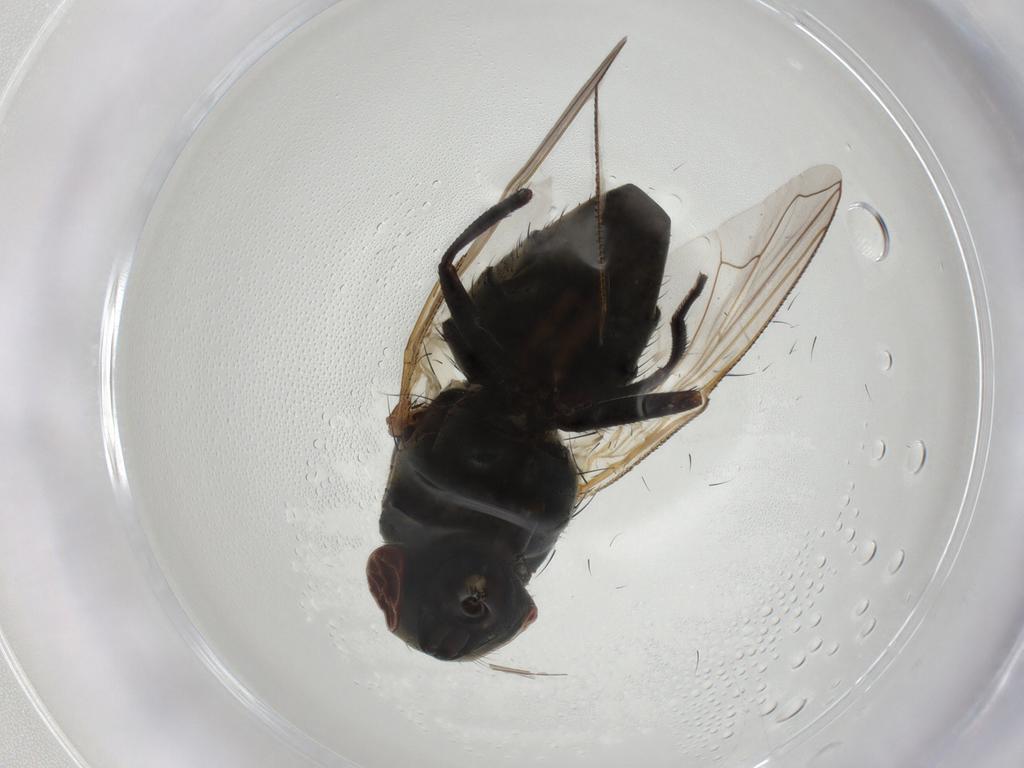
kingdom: Animalia
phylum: Arthropoda
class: Insecta
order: Diptera
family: Muscidae
